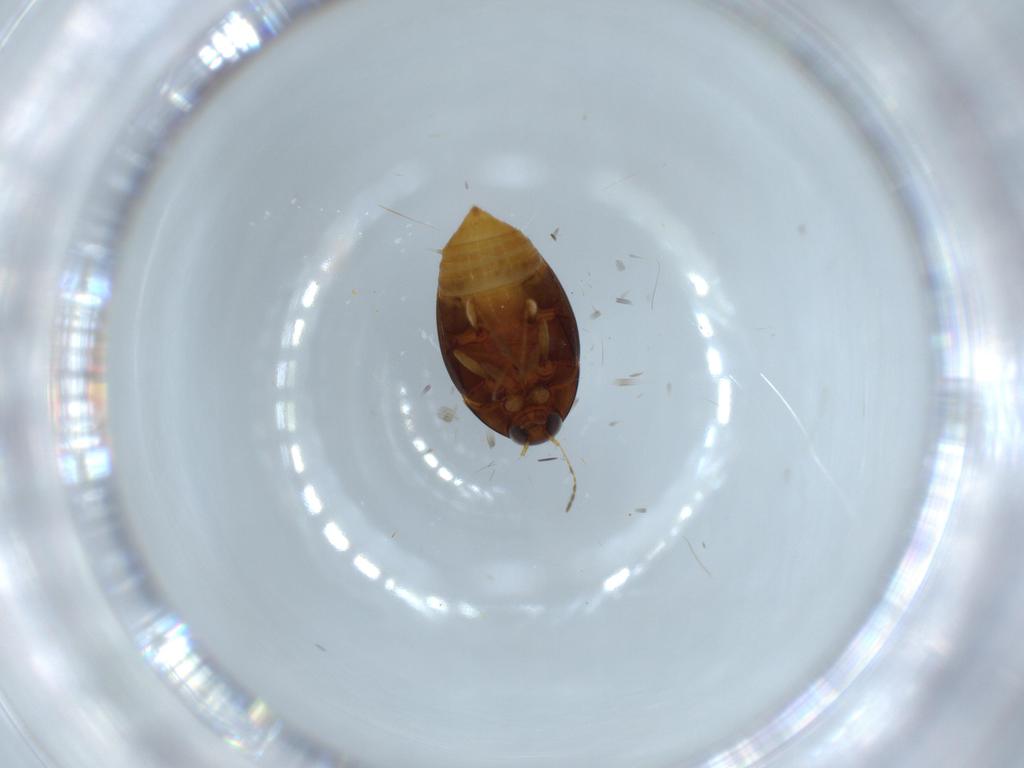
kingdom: Animalia
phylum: Arthropoda
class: Insecta
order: Coleoptera
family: Staphylinidae
